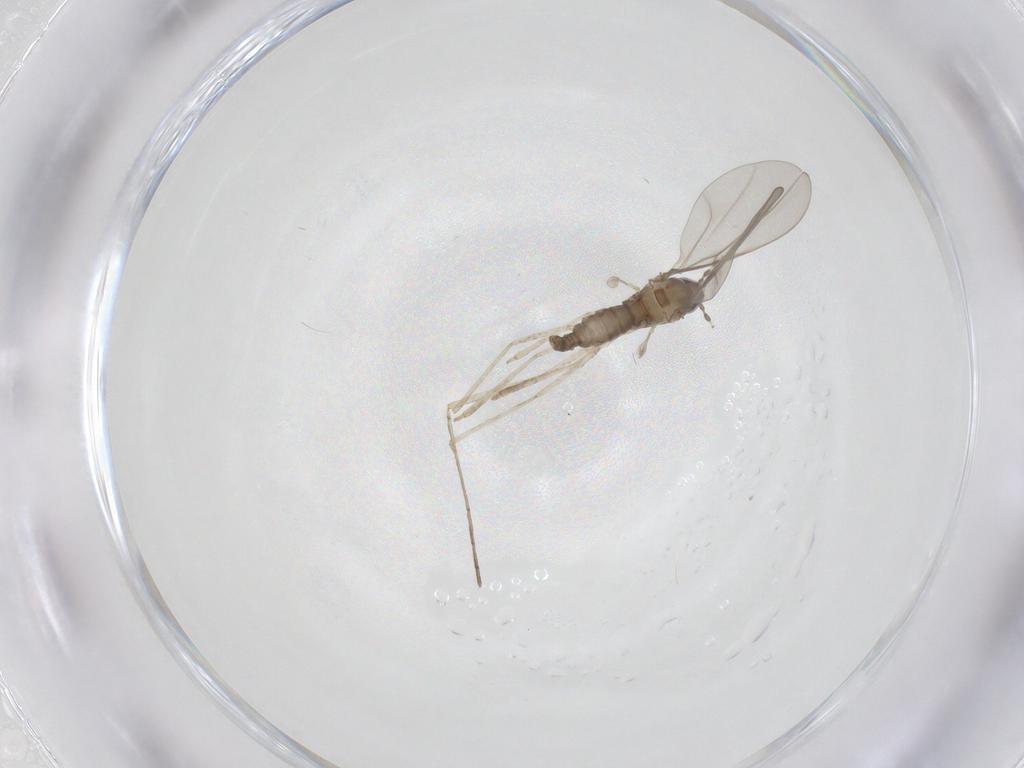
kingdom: Animalia
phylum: Arthropoda
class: Insecta
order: Diptera
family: Cecidomyiidae
